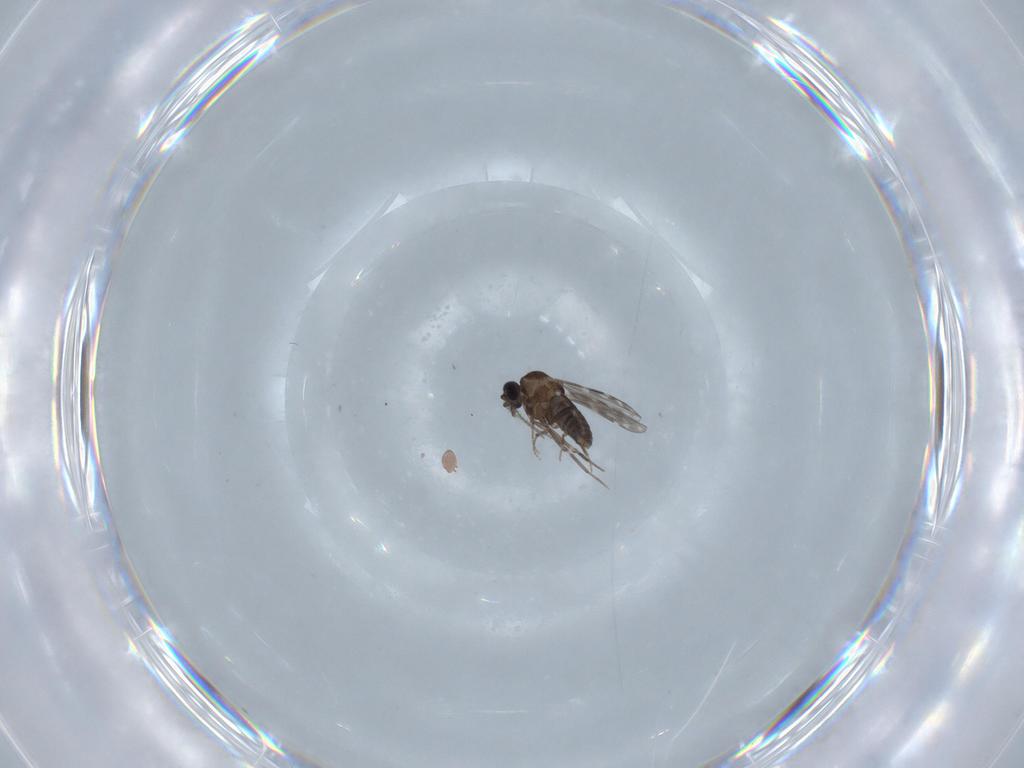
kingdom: Animalia
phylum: Arthropoda
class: Insecta
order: Diptera
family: Ceratopogonidae
